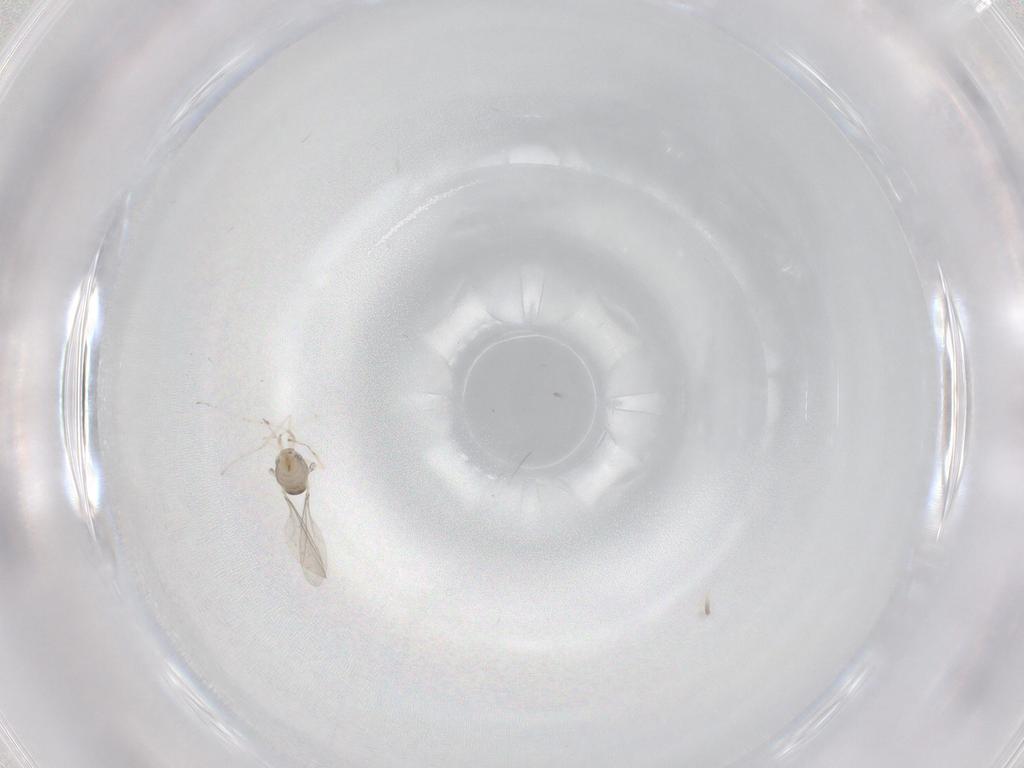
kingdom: Animalia
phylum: Arthropoda
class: Insecta
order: Diptera
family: Cecidomyiidae
